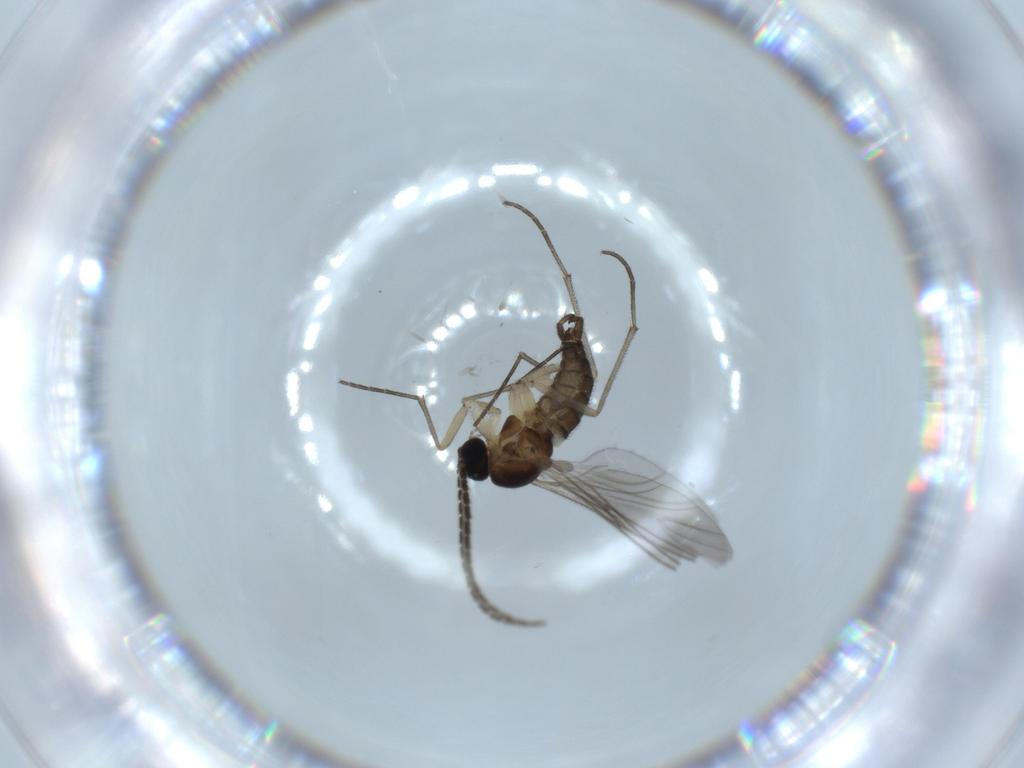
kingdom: Animalia
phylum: Arthropoda
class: Insecta
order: Diptera
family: Sciaridae
